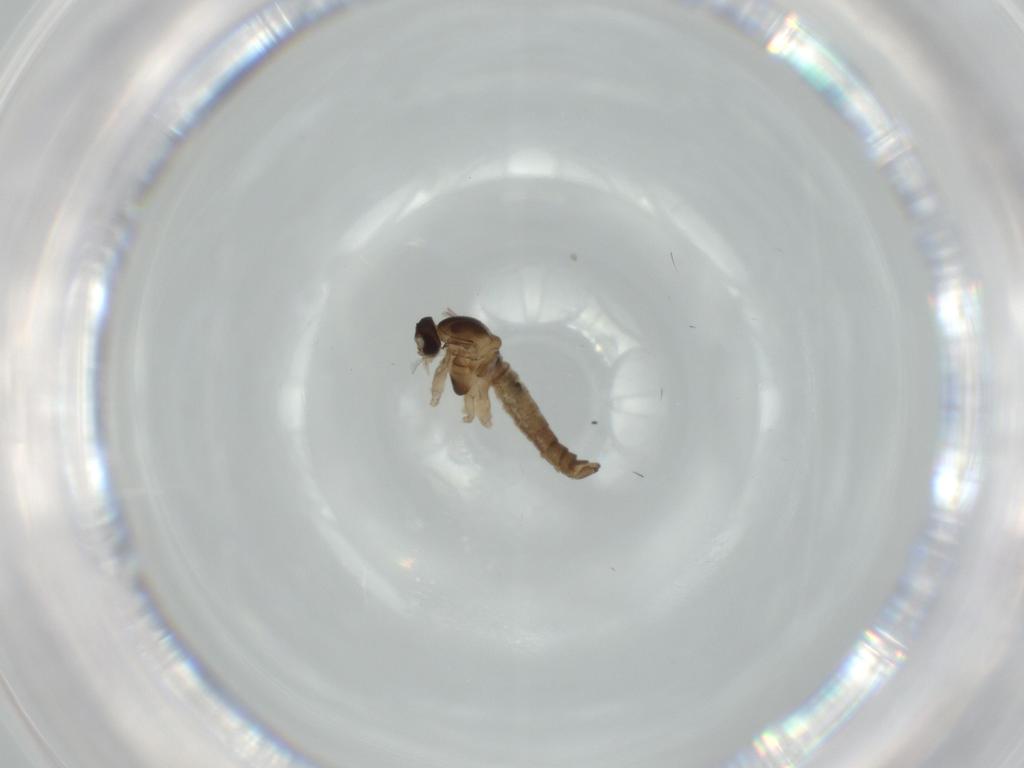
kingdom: Animalia
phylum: Arthropoda
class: Insecta
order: Diptera
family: Cecidomyiidae
